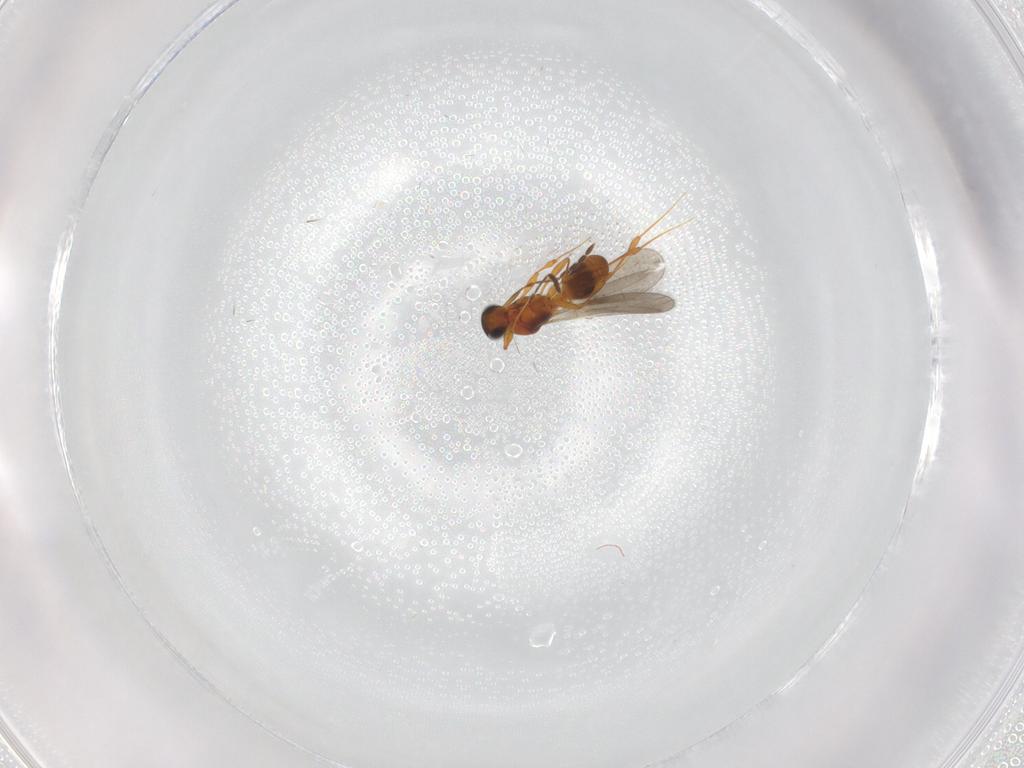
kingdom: Animalia
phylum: Arthropoda
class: Insecta
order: Hymenoptera
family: Platygastridae
